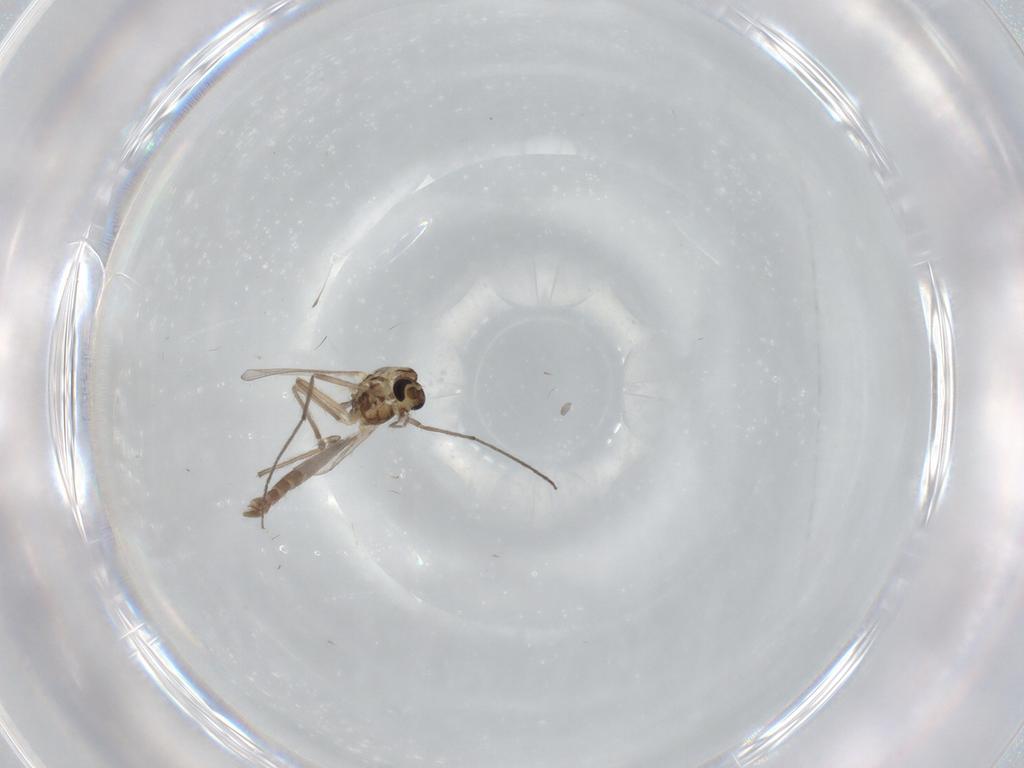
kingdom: Animalia
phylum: Arthropoda
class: Insecta
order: Diptera
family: Chironomidae
